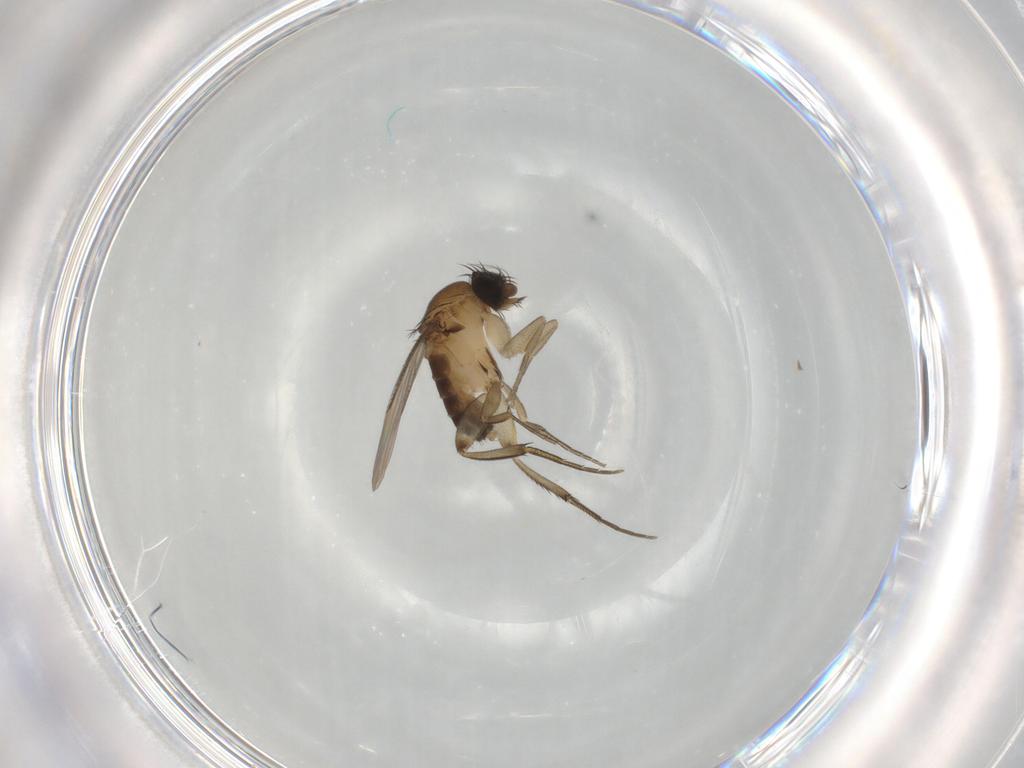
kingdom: Animalia
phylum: Arthropoda
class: Insecta
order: Diptera
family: Phoridae
